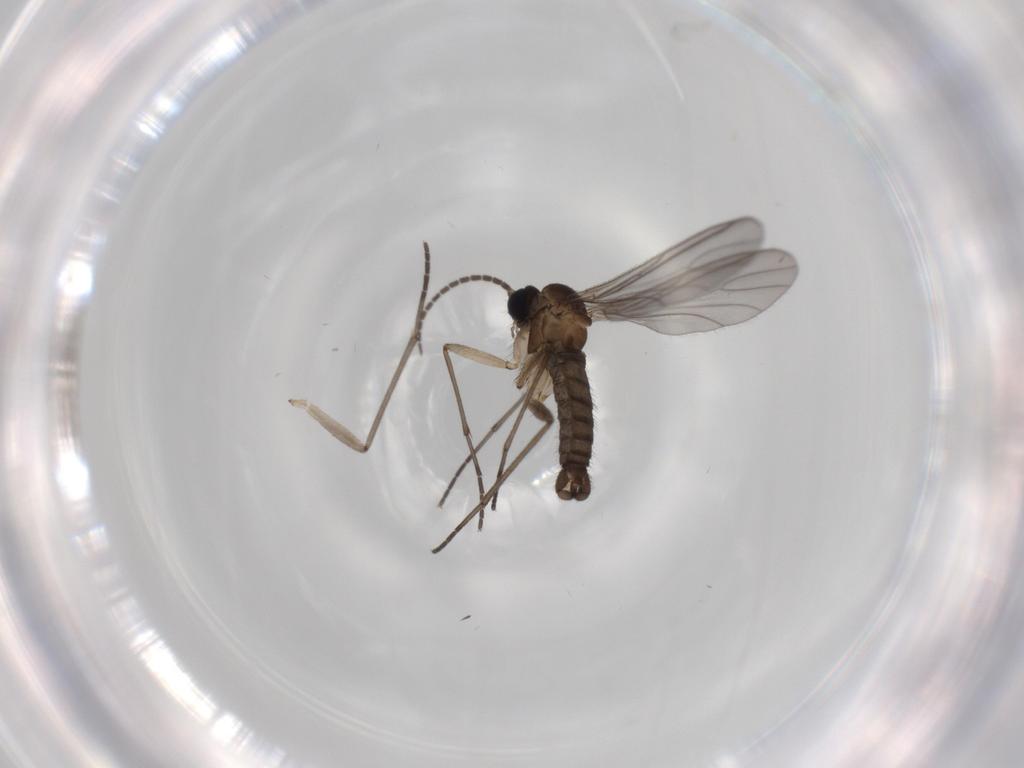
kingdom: Animalia
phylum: Arthropoda
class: Insecta
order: Diptera
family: Sciaridae
